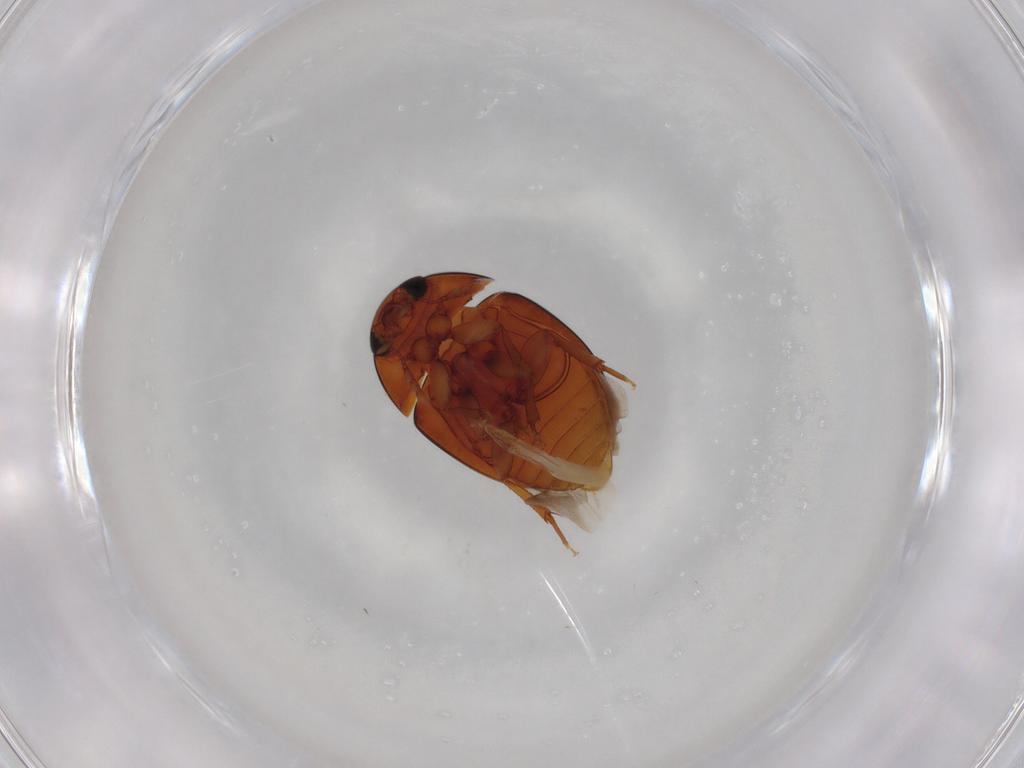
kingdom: Animalia
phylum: Arthropoda
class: Insecta
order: Coleoptera
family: Phalacridae
